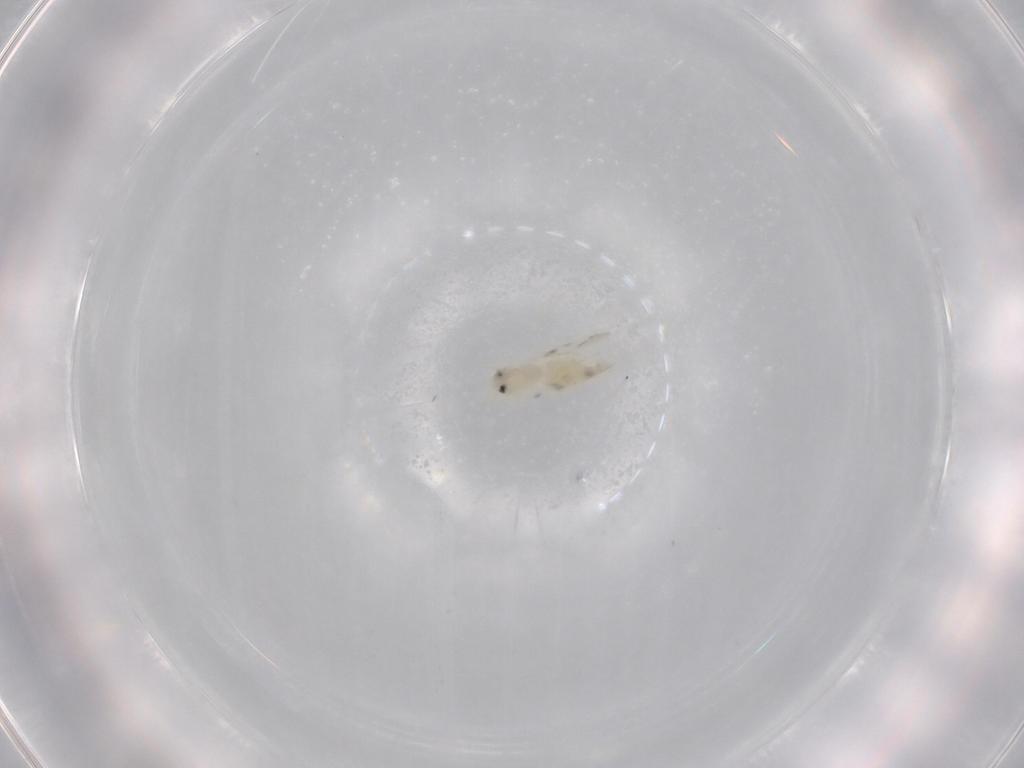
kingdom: Animalia
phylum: Arthropoda
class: Insecta
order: Hemiptera
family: Aleyrodidae
